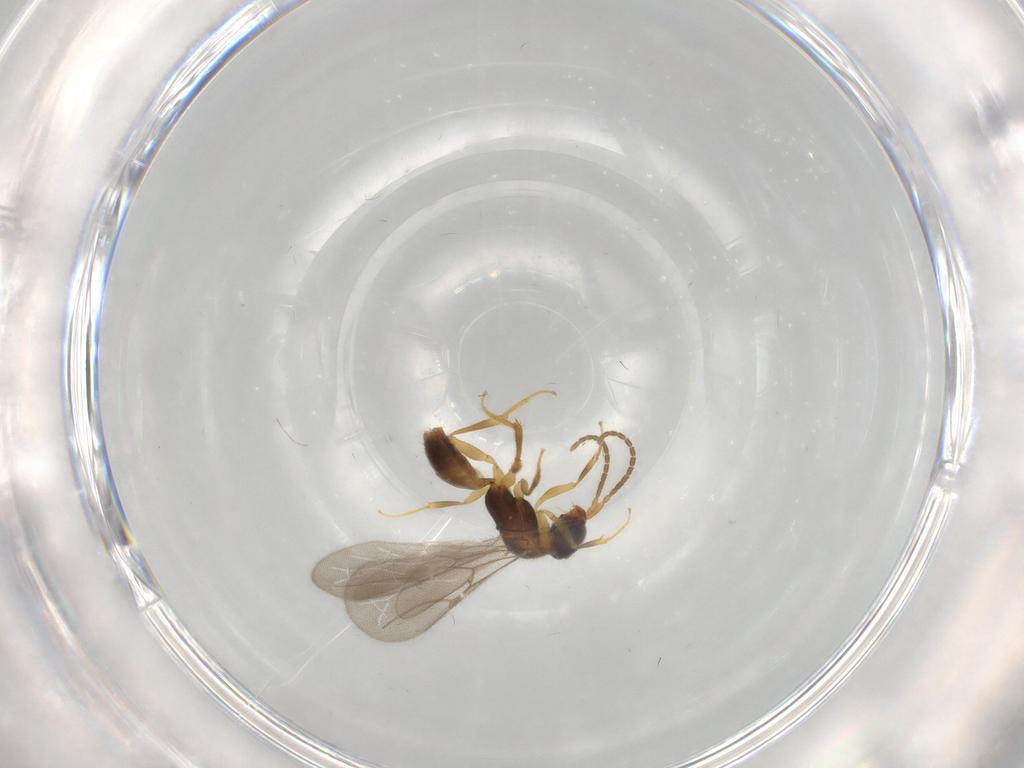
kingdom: Animalia
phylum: Arthropoda
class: Insecta
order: Hymenoptera
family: Bethylidae
